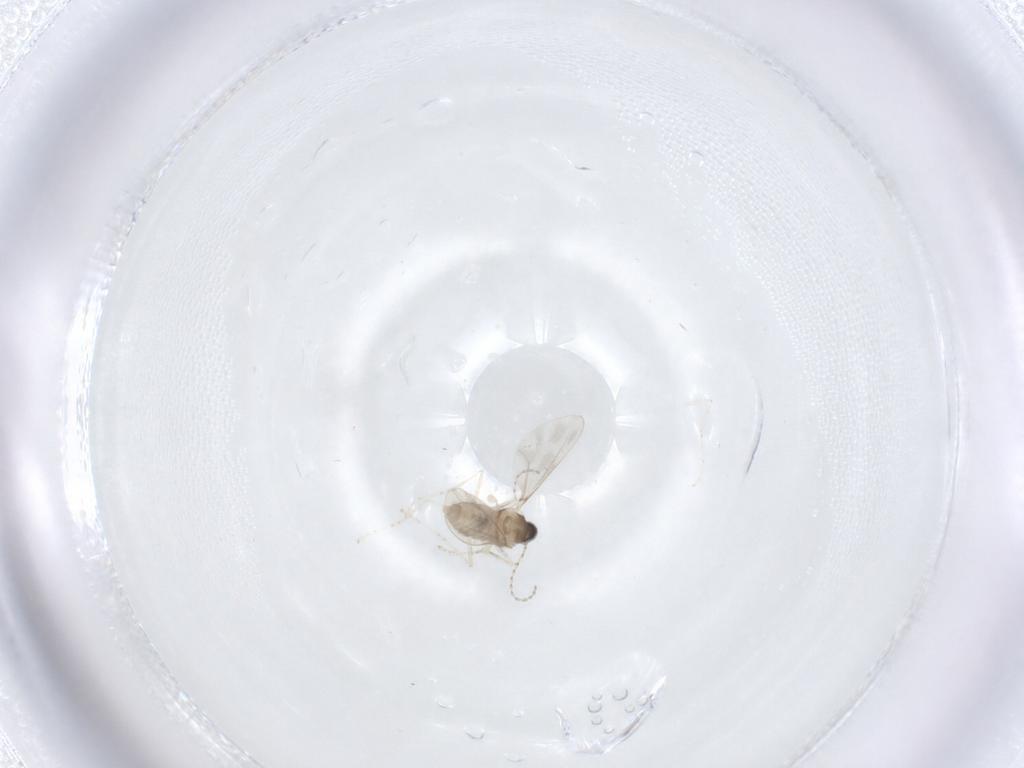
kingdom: Animalia
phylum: Arthropoda
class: Insecta
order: Diptera
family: Cecidomyiidae
